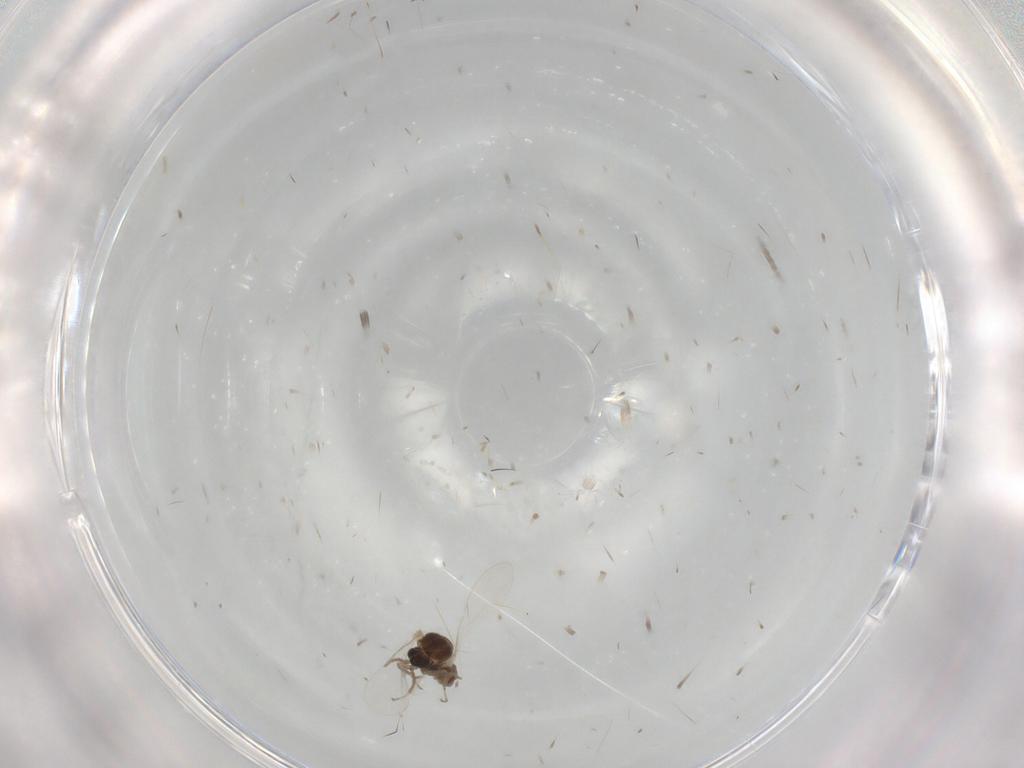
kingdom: Animalia
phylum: Arthropoda
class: Insecta
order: Diptera
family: Cecidomyiidae
